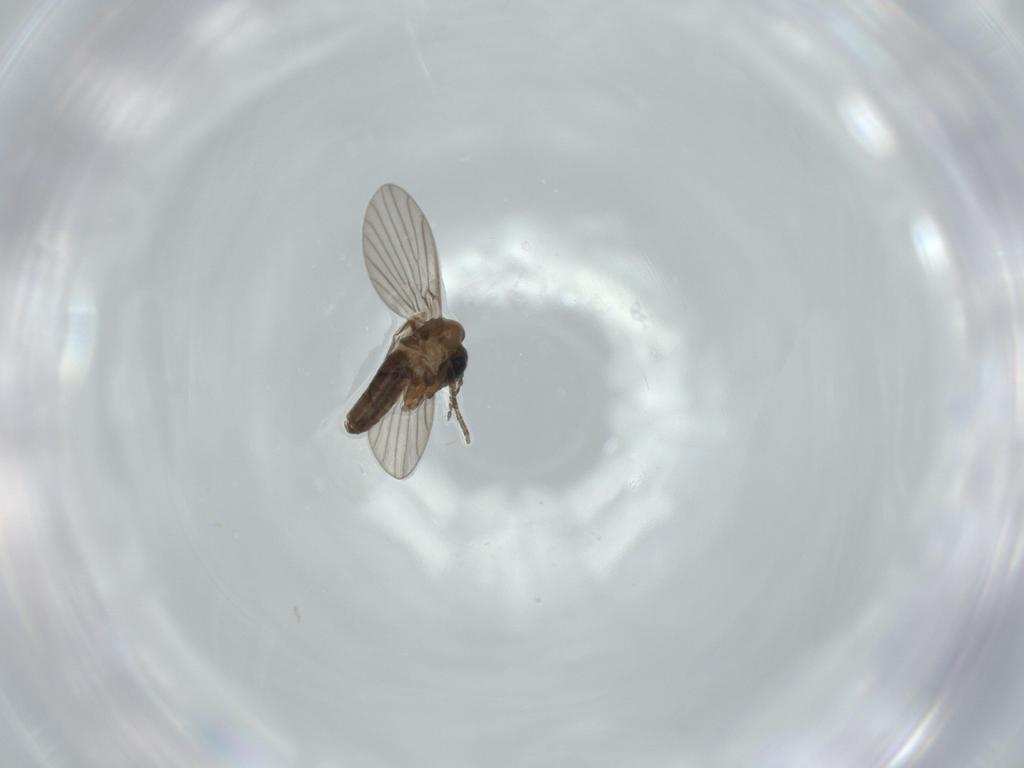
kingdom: Animalia
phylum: Arthropoda
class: Insecta
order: Diptera
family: Psychodidae
